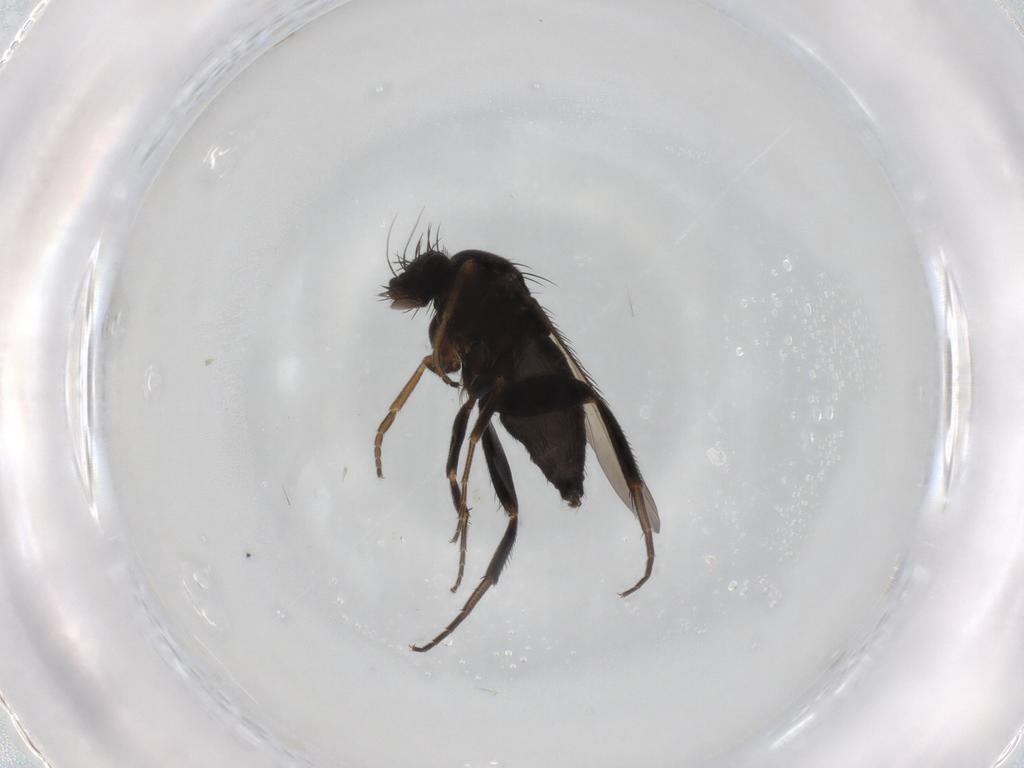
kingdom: Animalia
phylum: Arthropoda
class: Insecta
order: Diptera
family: Phoridae
